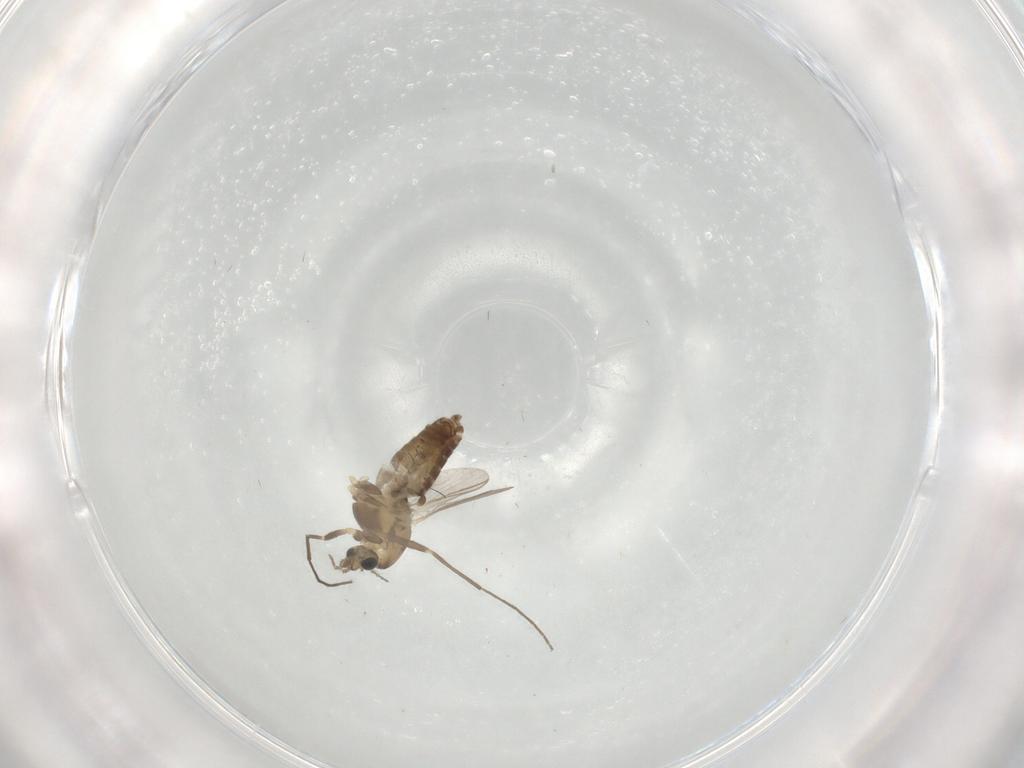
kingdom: Animalia
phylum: Arthropoda
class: Insecta
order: Diptera
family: Chironomidae
